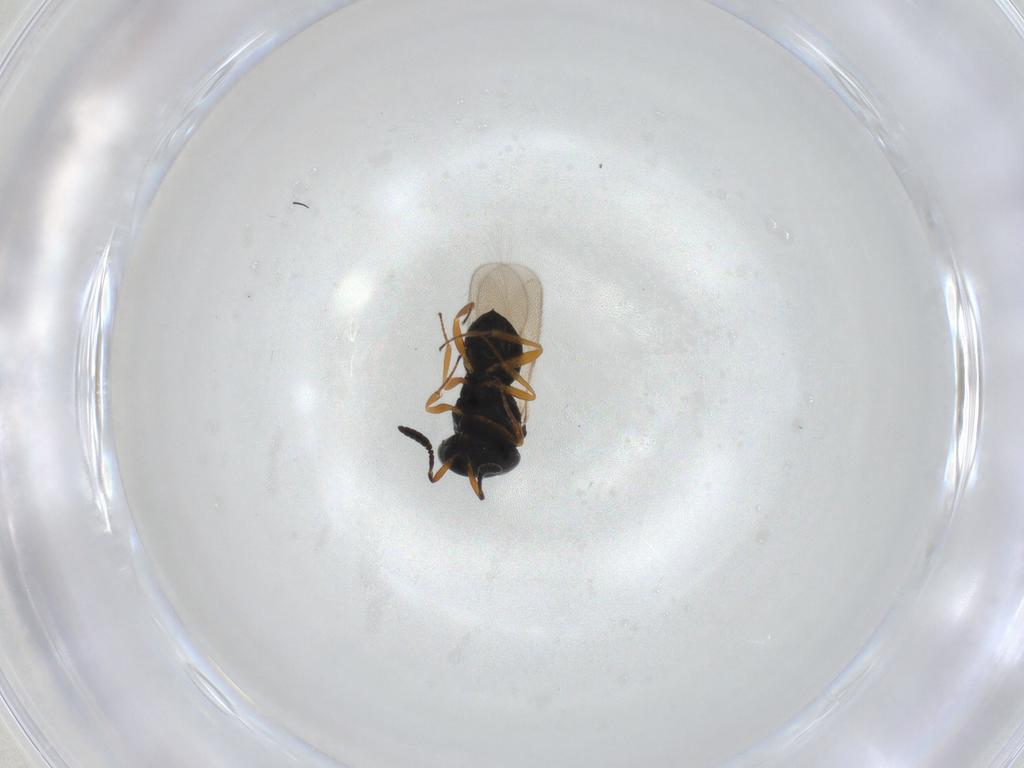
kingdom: Animalia
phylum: Arthropoda
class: Insecta
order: Hymenoptera
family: Scelionidae
